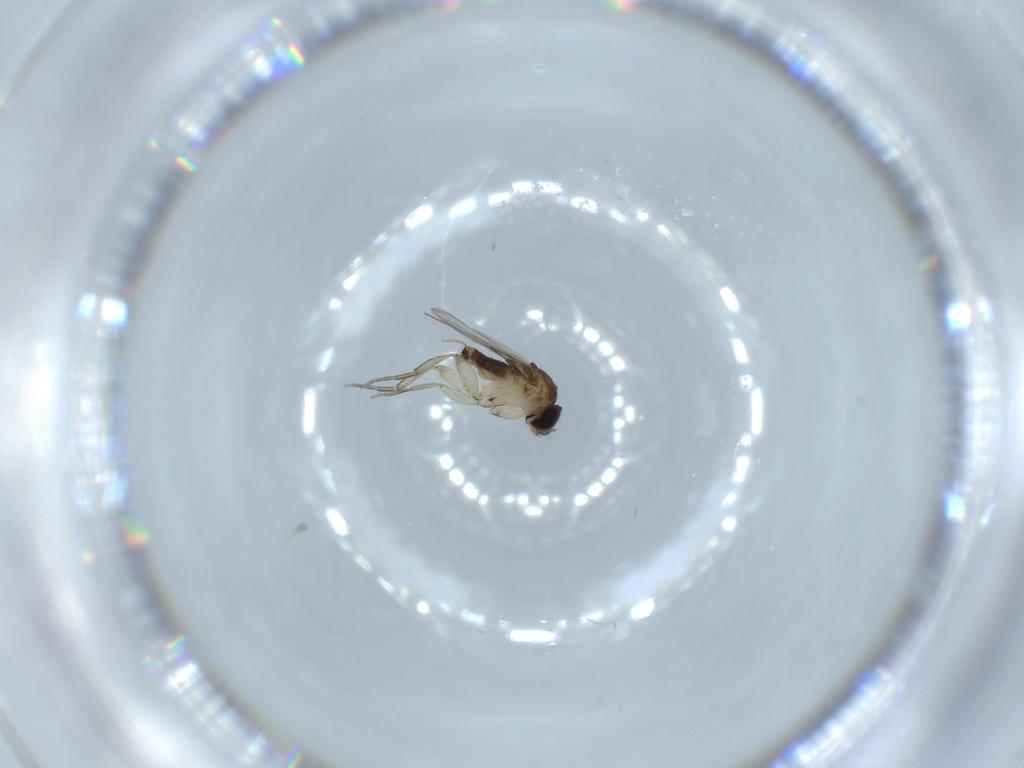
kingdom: Animalia
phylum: Arthropoda
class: Insecta
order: Diptera
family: Phoridae
